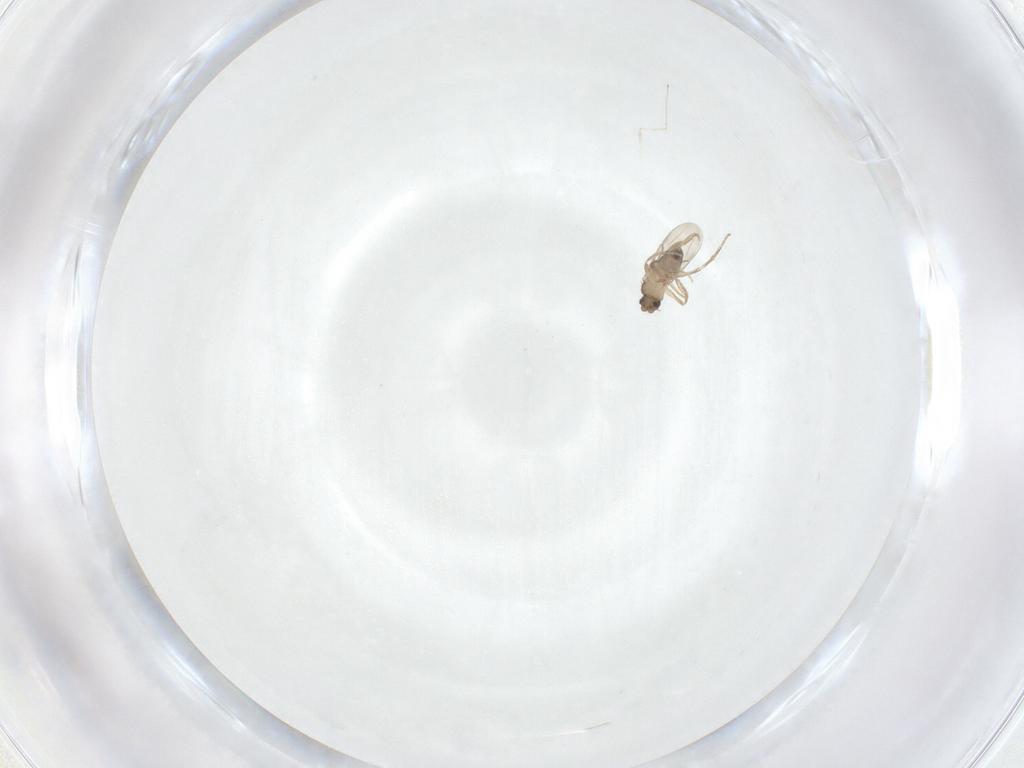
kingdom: Animalia
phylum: Arthropoda
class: Insecta
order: Diptera
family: Phoridae
